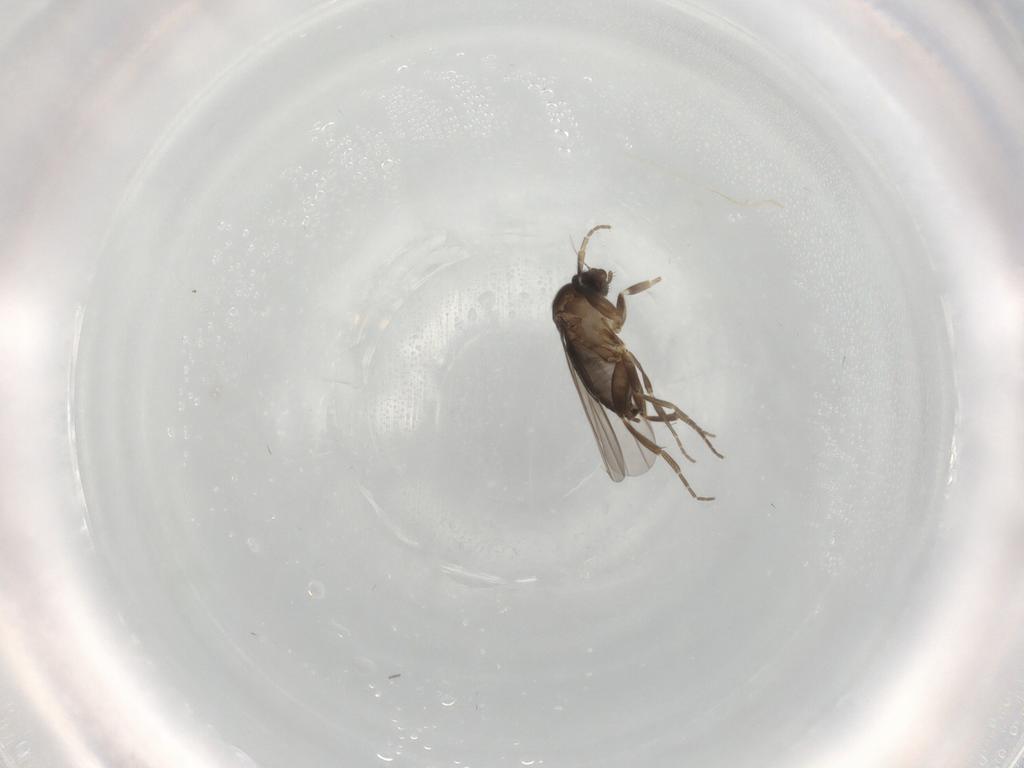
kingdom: Animalia
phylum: Arthropoda
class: Insecta
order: Diptera
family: Phoridae
